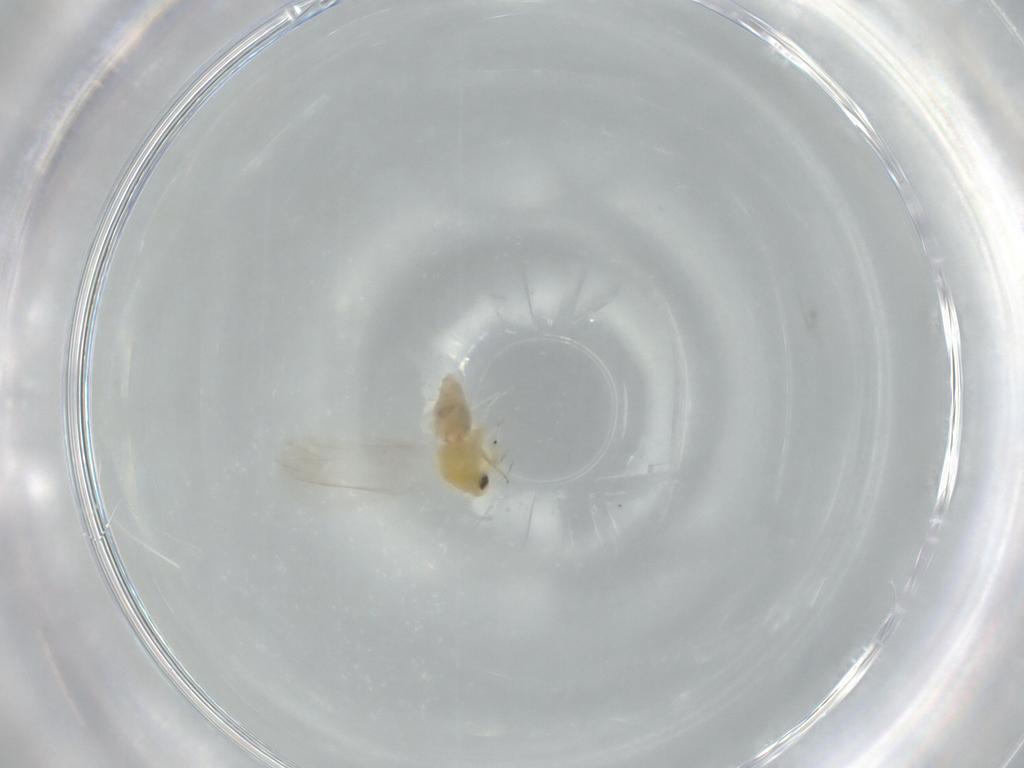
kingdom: Animalia
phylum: Arthropoda
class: Insecta
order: Hemiptera
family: Aleyrodidae
